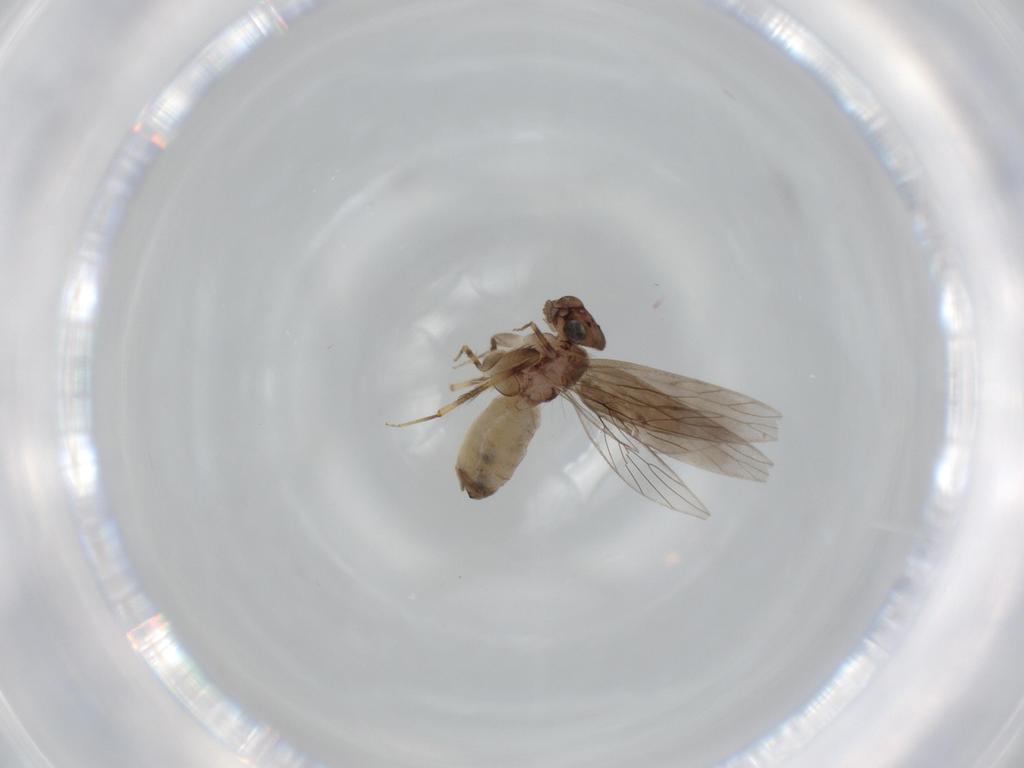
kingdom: Animalia
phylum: Arthropoda
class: Insecta
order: Psocodea
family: Lepidopsocidae
